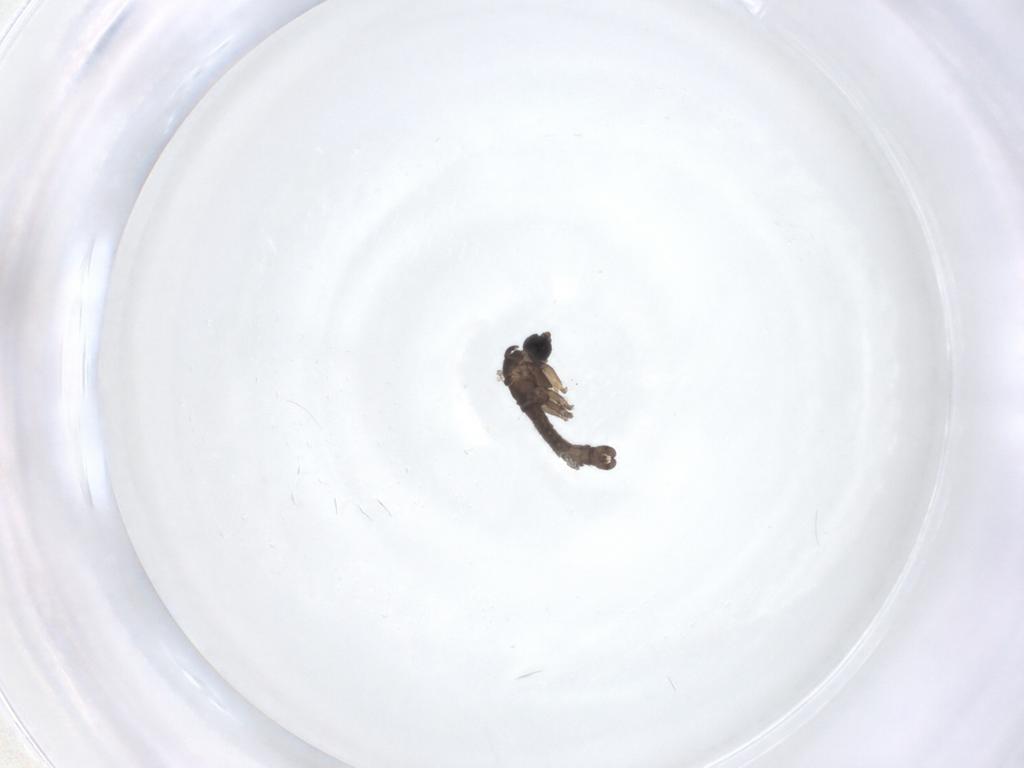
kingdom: Animalia
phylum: Arthropoda
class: Insecta
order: Diptera
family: Sciaridae
